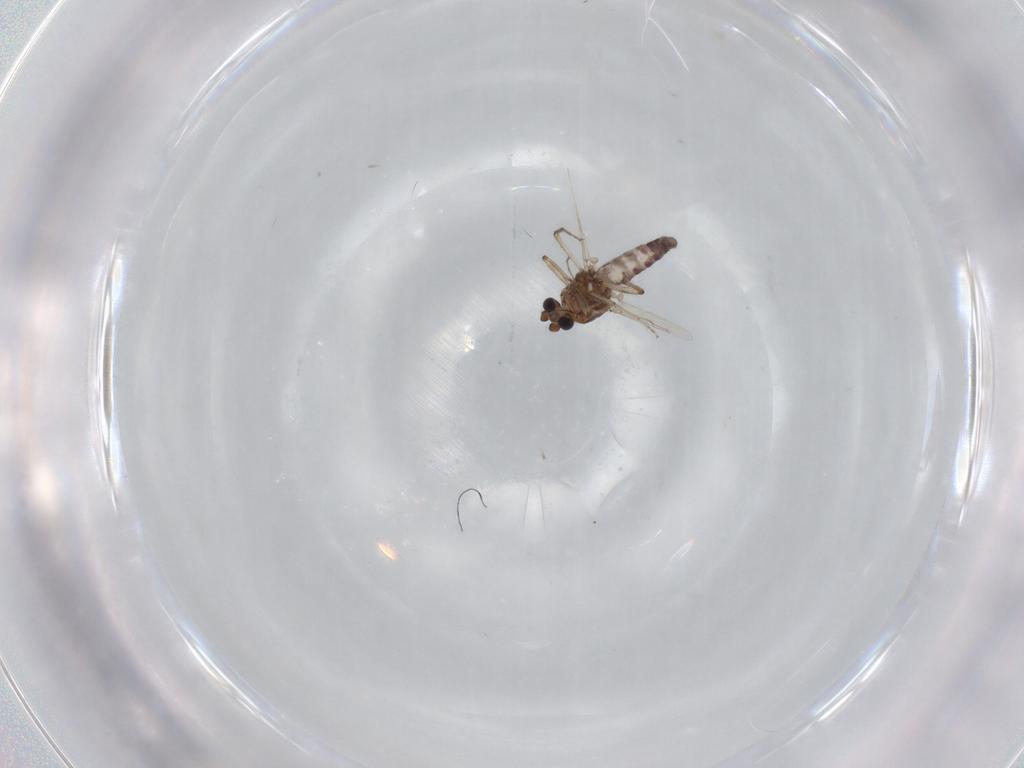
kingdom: Animalia
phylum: Arthropoda
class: Insecta
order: Diptera
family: Ceratopogonidae
